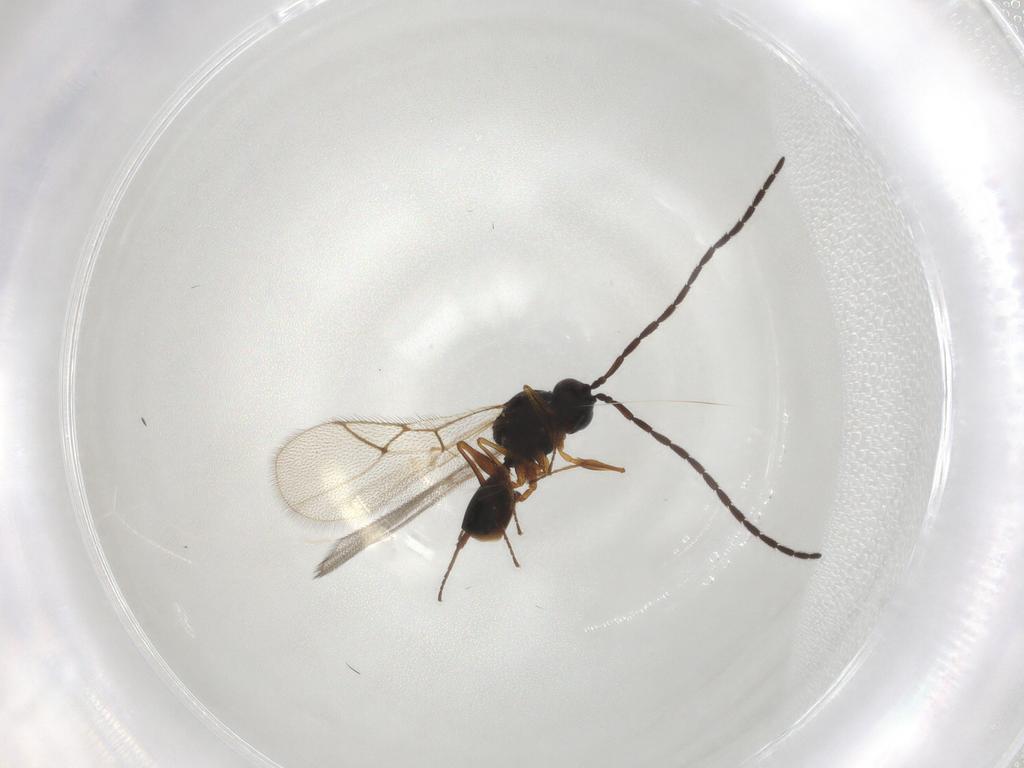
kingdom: Animalia
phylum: Arthropoda
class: Insecta
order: Hymenoptera
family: Figitidae
